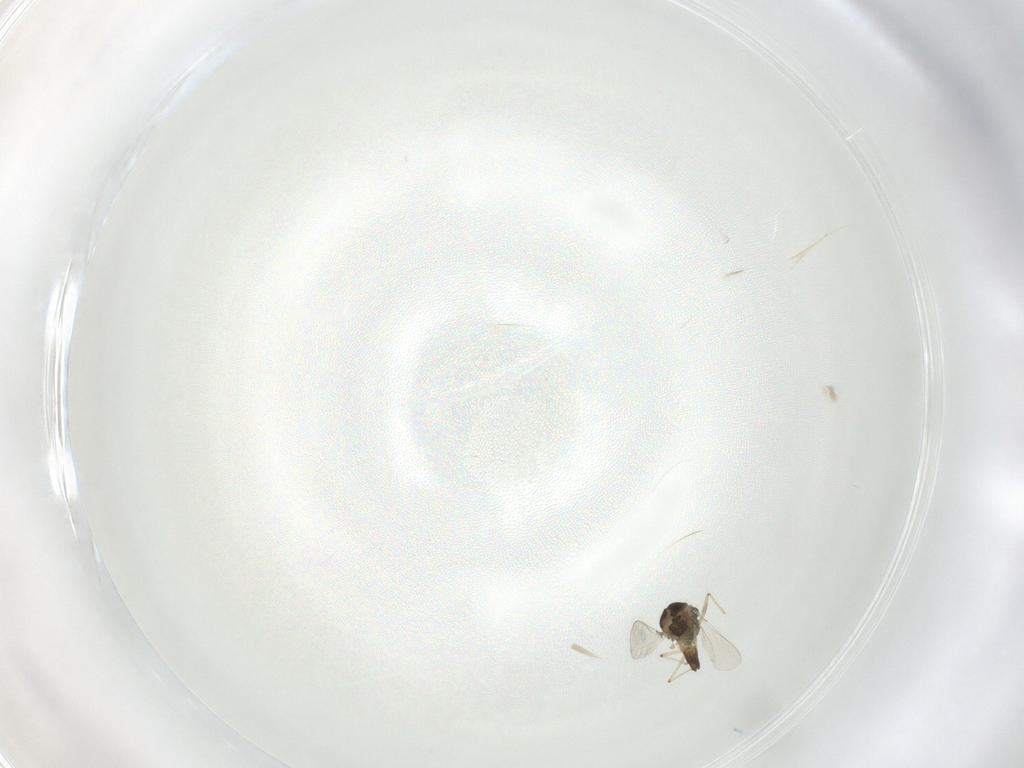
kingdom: Animalia
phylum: Arthropoda
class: Insecta
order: Diptera
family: Chironomidae
